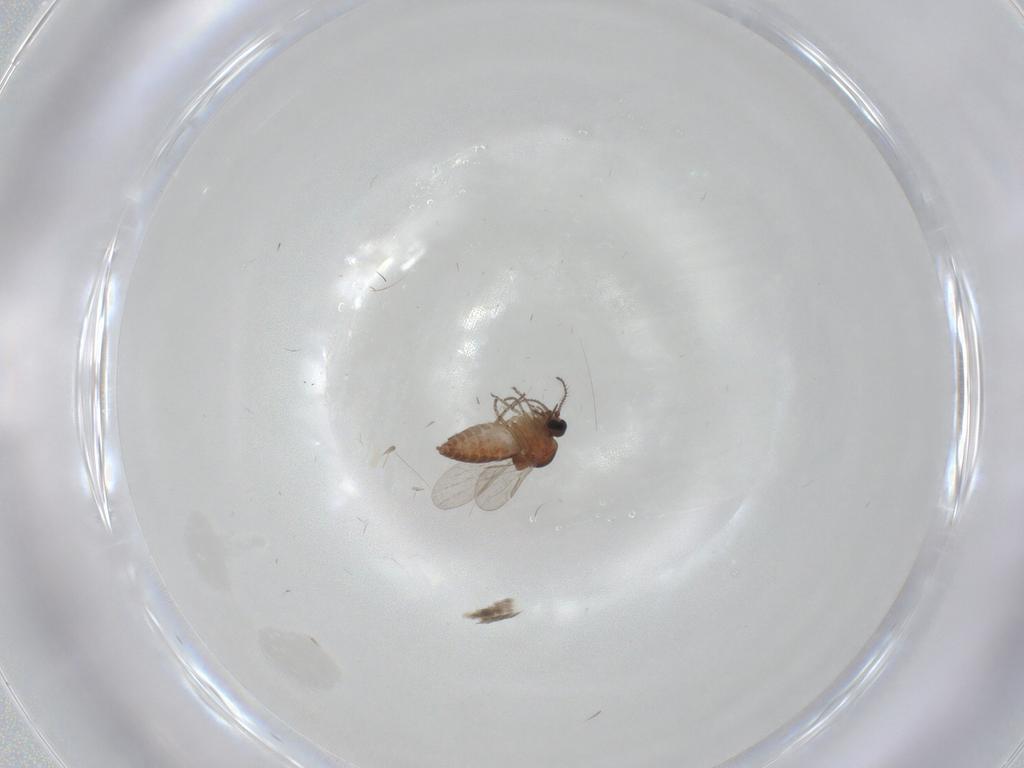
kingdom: Animalia
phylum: Arthropoda
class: Insecta
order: Diptera
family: Ceratopogonidae
